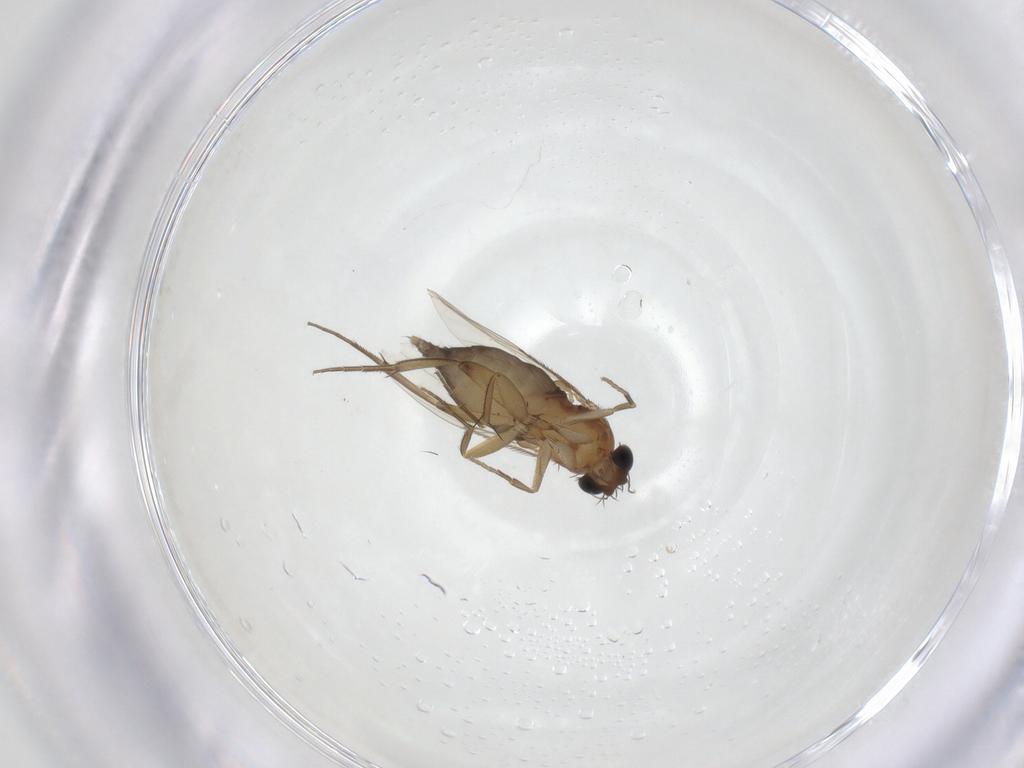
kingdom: Animalia
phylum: Arthropoda
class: Insecta
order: Diptera
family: Phoridae
